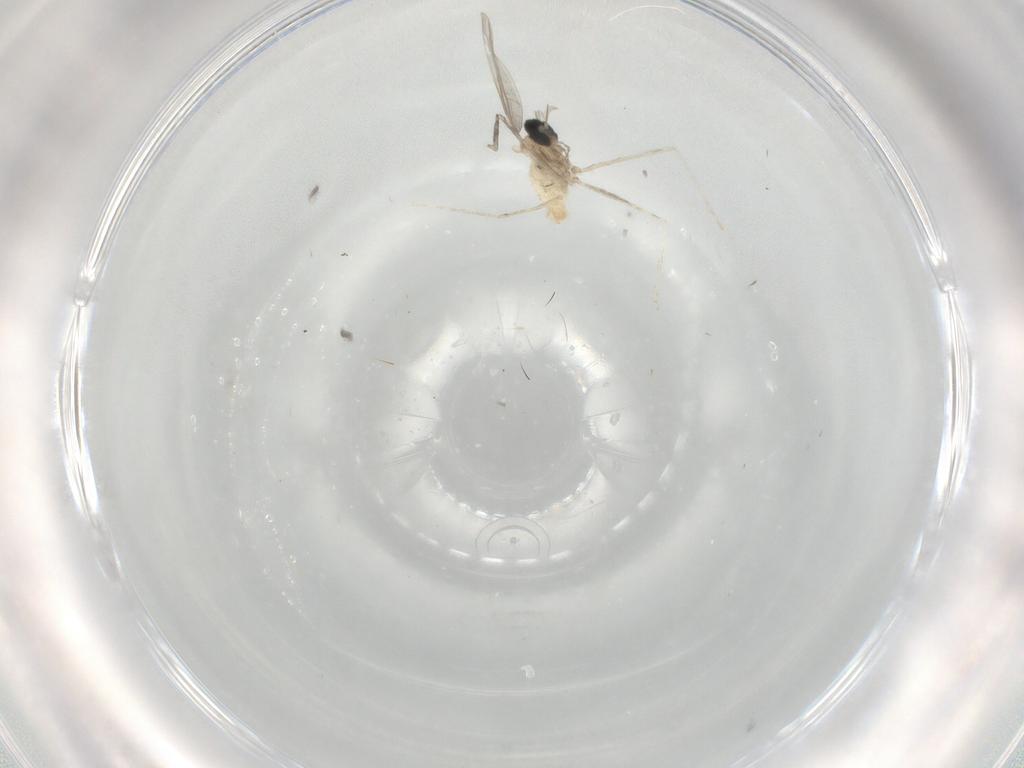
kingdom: Animalia
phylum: Arthropoda
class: Insecta
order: Diptera
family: Cecidomyiidae
